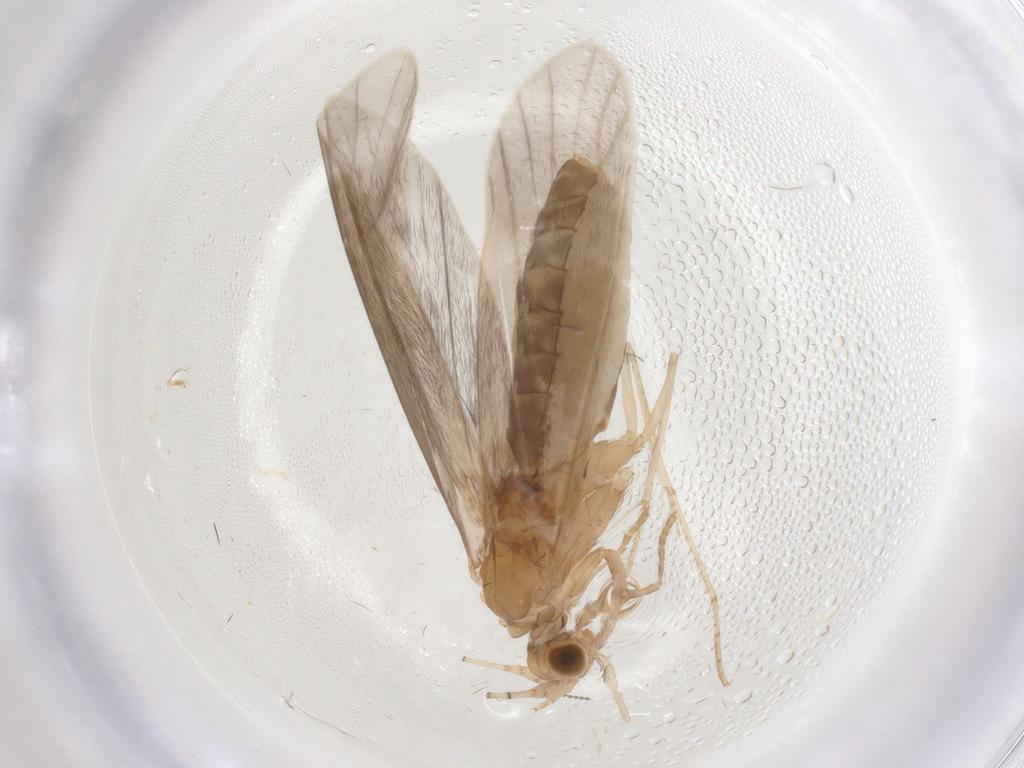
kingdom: Animalia
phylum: Arthropoda
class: Insecta
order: Trichoptera
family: Leptoceridae
